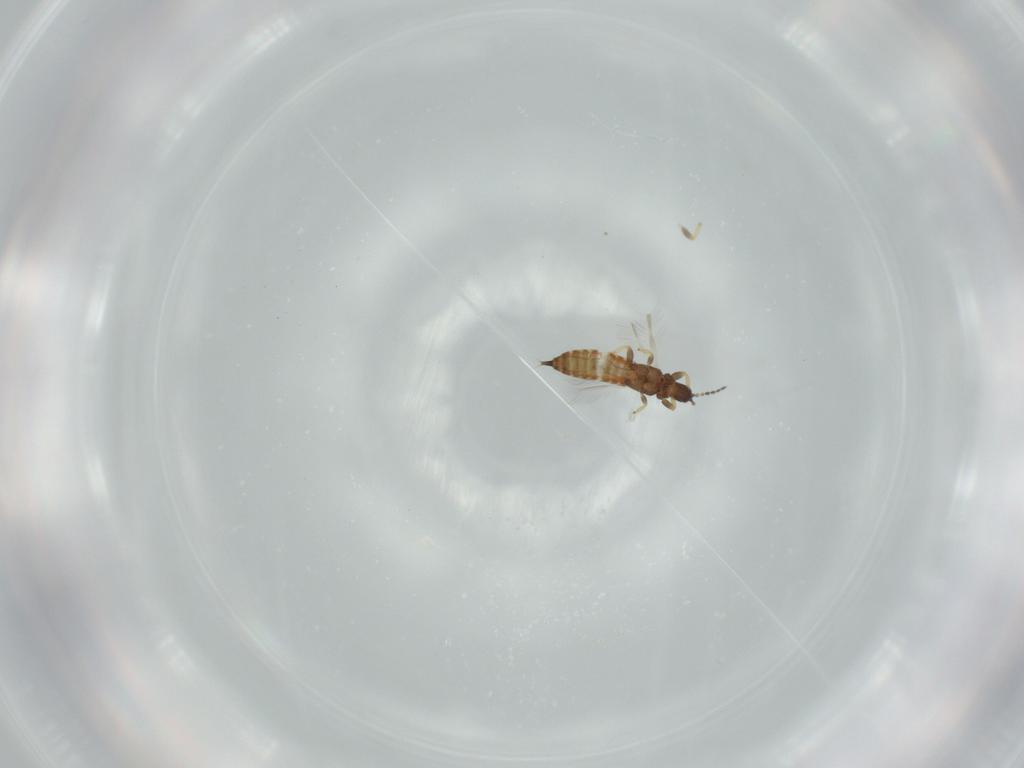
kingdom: Animalia
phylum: Arthropoda
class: Insecta
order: Thysanoptera
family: Phlaeothripidae
